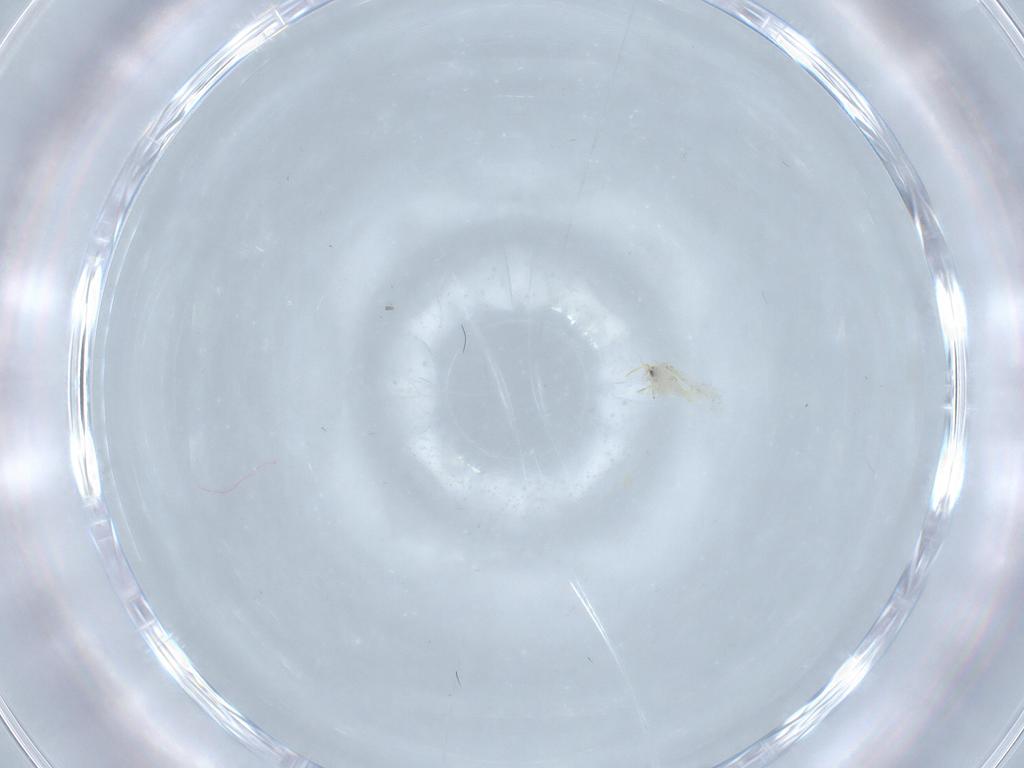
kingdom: Animalia
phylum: Arthropoda
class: Insecta
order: Hemiptera
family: Aleyrodidae
